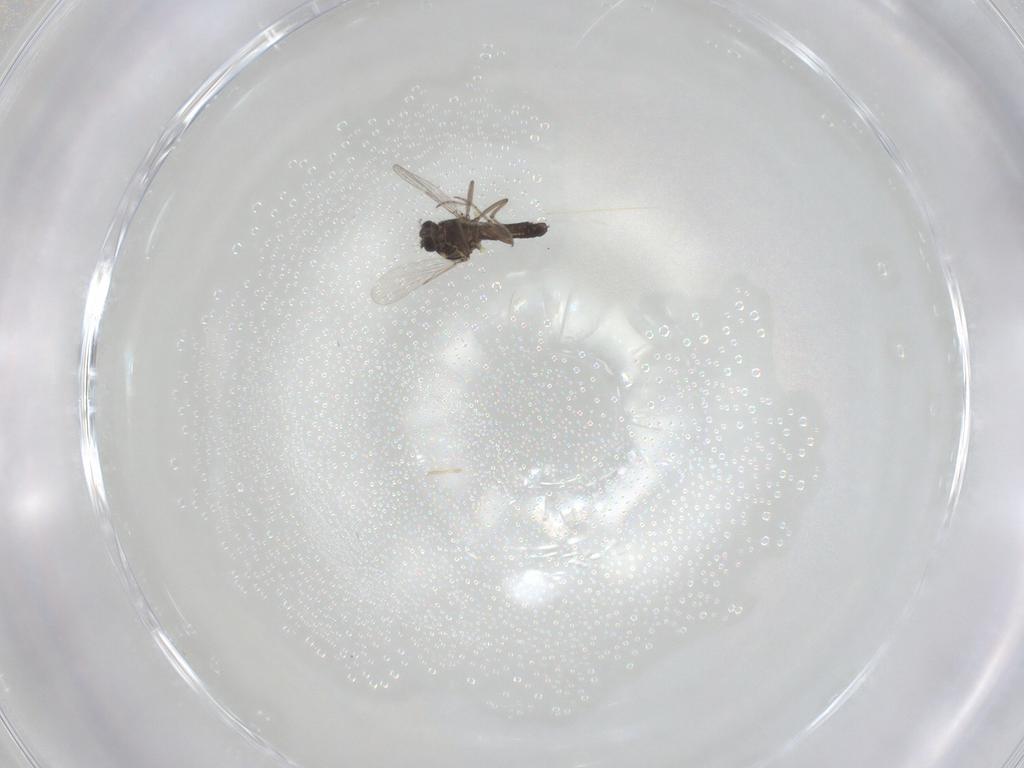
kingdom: Animalia
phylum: Arthropoda
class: Insecta
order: Diptera
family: Ceratopogonidae
